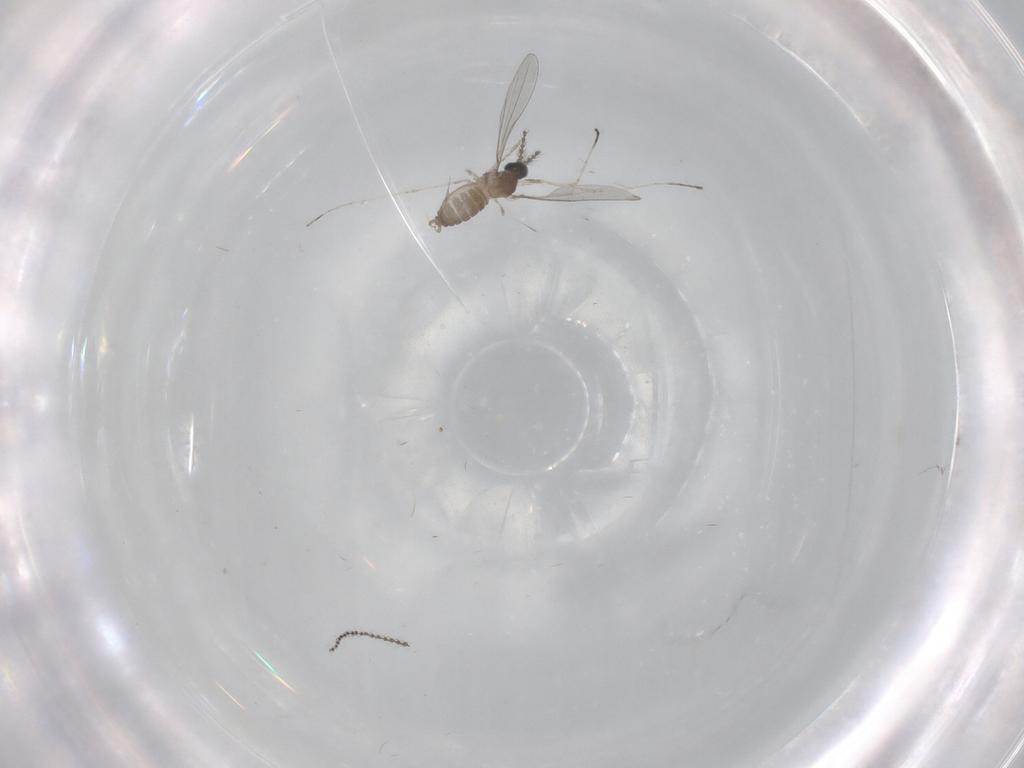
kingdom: Animalia
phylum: Arthropoda
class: Insecta
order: Diptera
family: Cecidomyiidae
